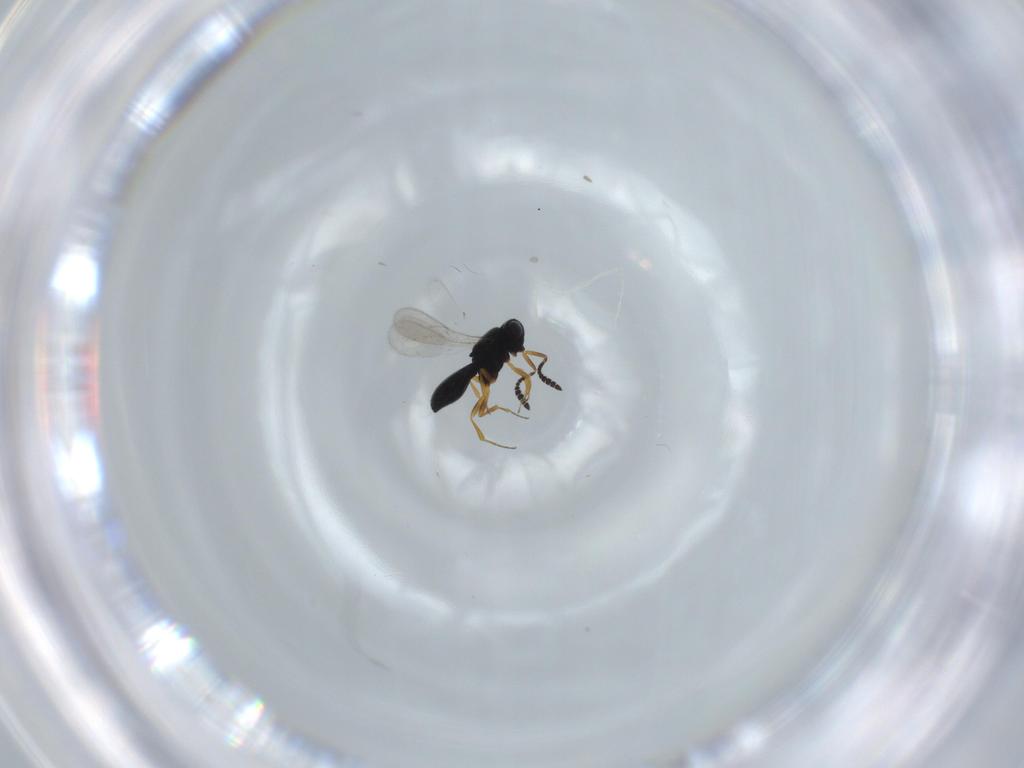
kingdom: Animalia
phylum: Arthropoda
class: Insecta
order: Hymenoptera
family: Scelionidae
